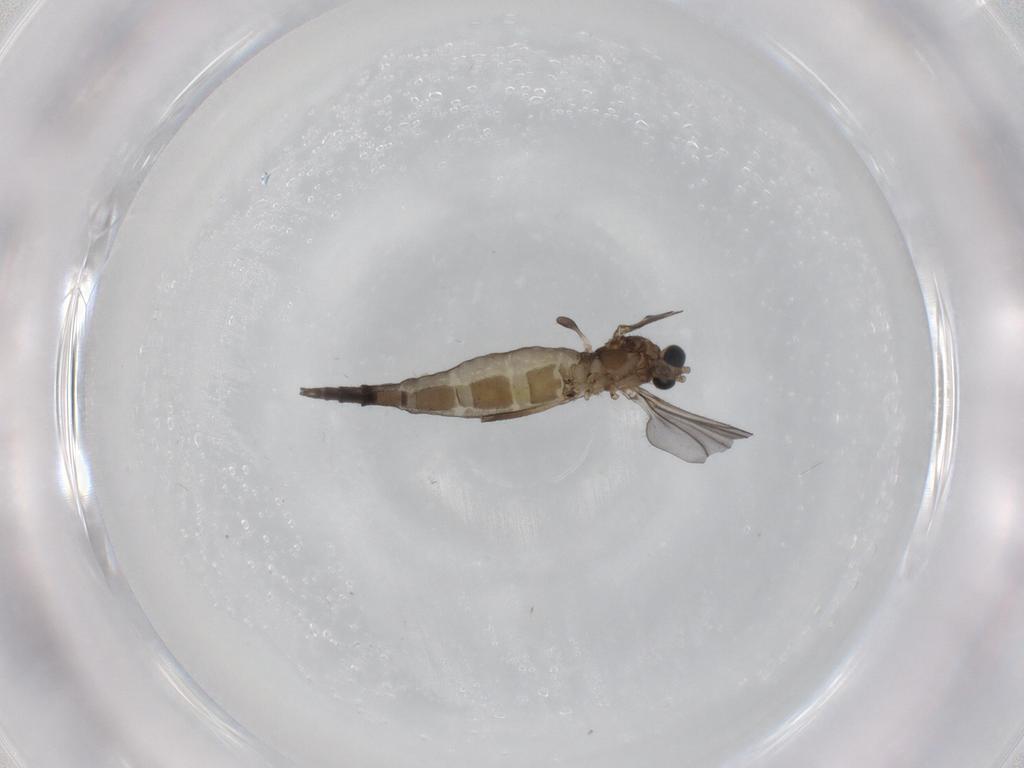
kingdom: Animalia
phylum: Arthropoda
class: Insecta
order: Diptera
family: Sciaridae
